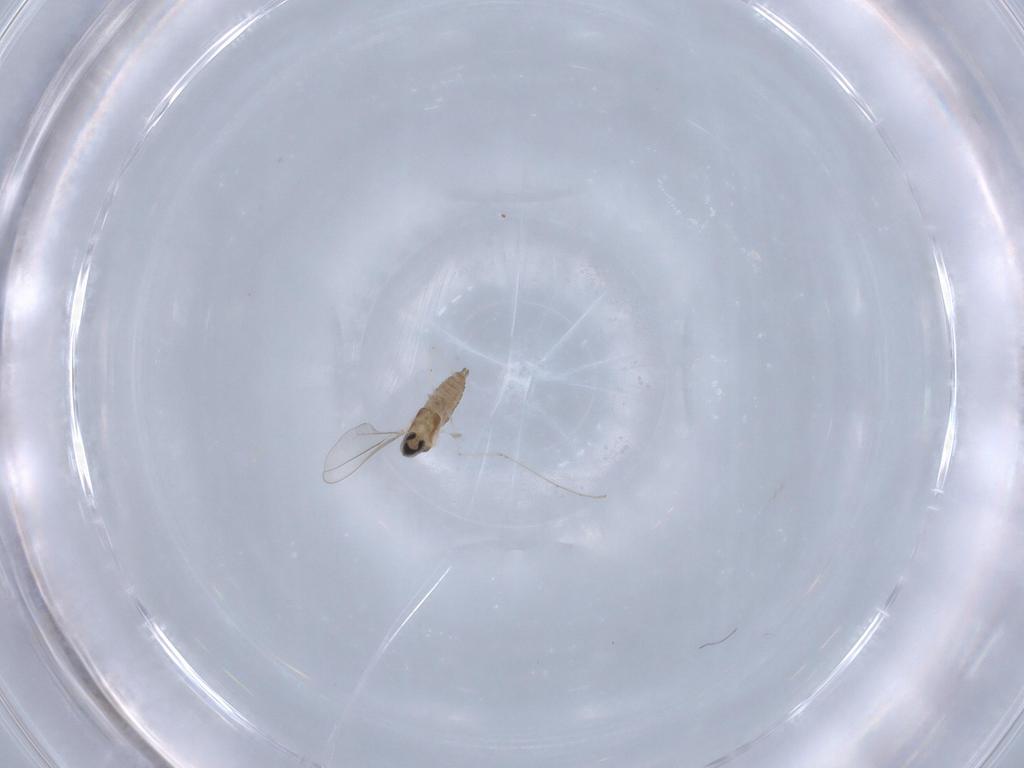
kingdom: Animalia
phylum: Arthropoda
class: Insecta
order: Diptera
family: Cecidomyiidae
